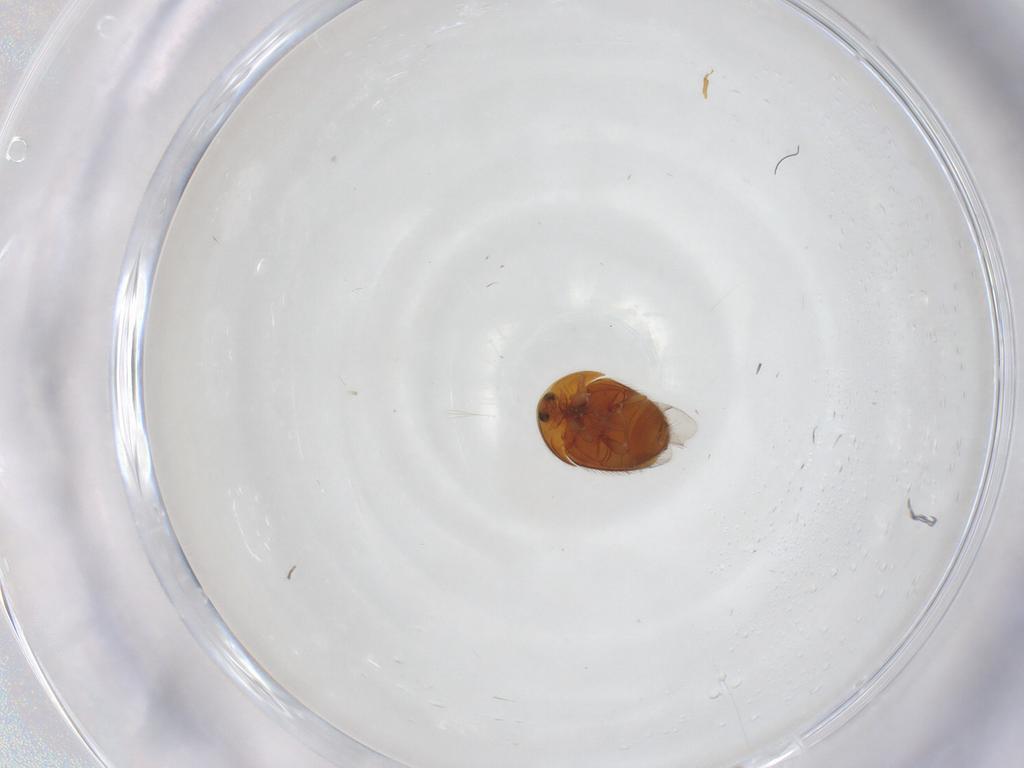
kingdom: Animalia
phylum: Arthropoda
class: Insecta
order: Coleoptera
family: Corylophidae
